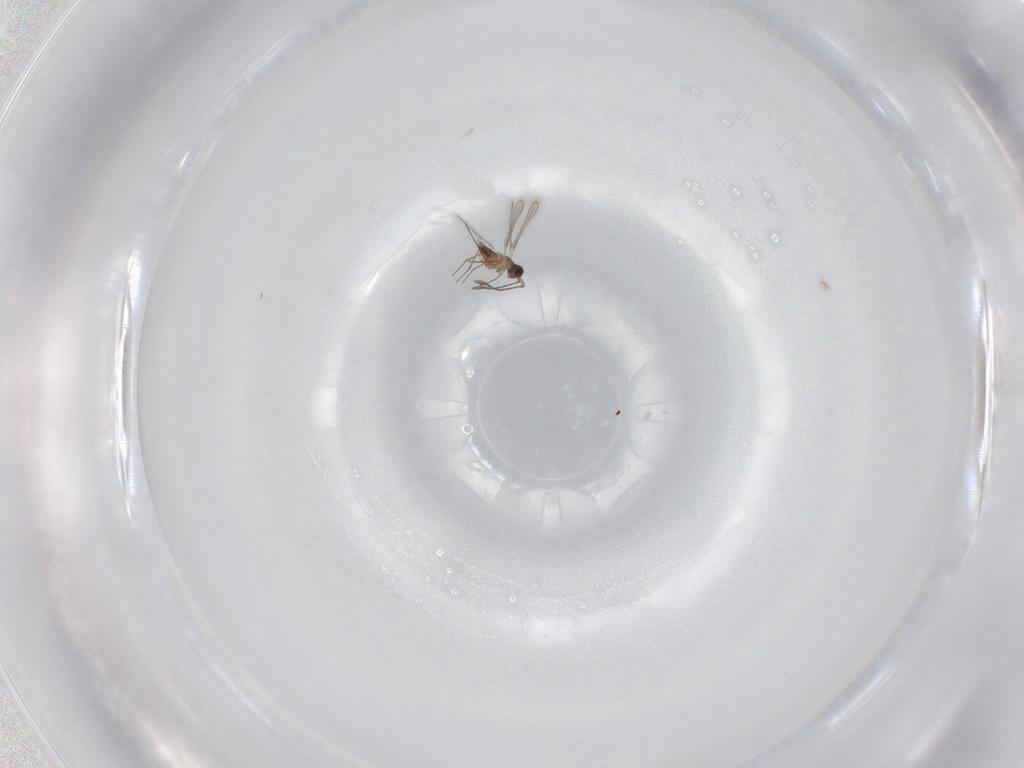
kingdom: Animalia
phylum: Arthropoda
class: Insecta
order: Hymenoptera
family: Mymaridae
